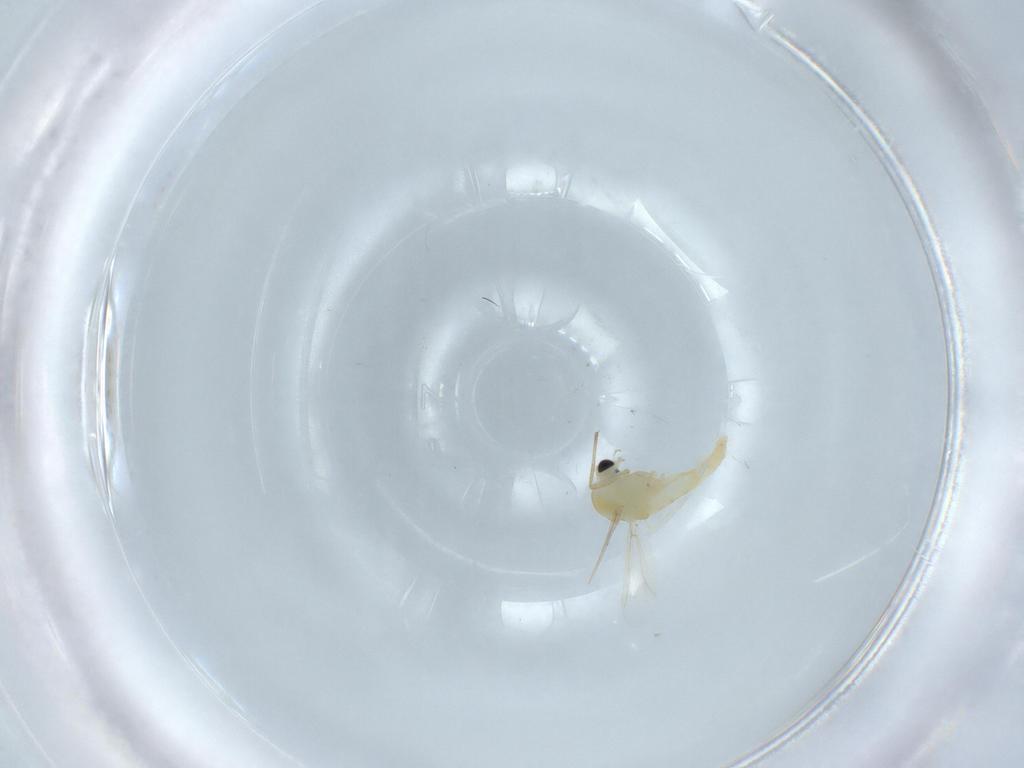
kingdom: Animalia
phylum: Arthropoda
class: Insecta
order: Diptera
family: Chironomidae
